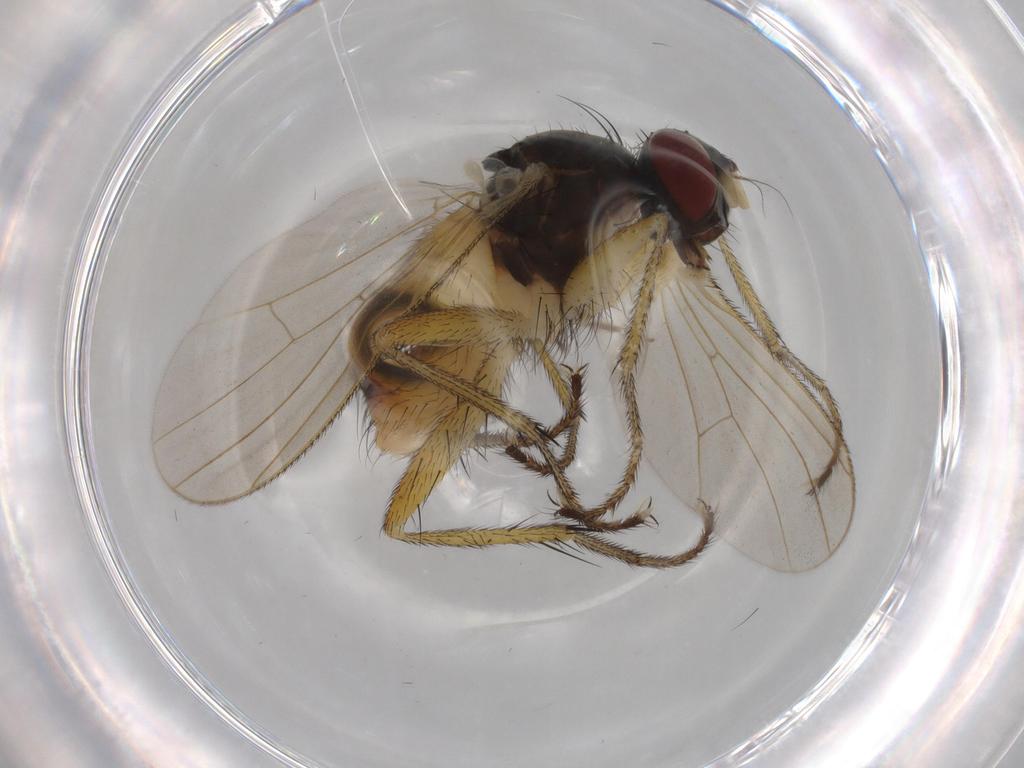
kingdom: Animalia
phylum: Arthropoda
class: Insecta
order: Diptera
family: Muscidae
